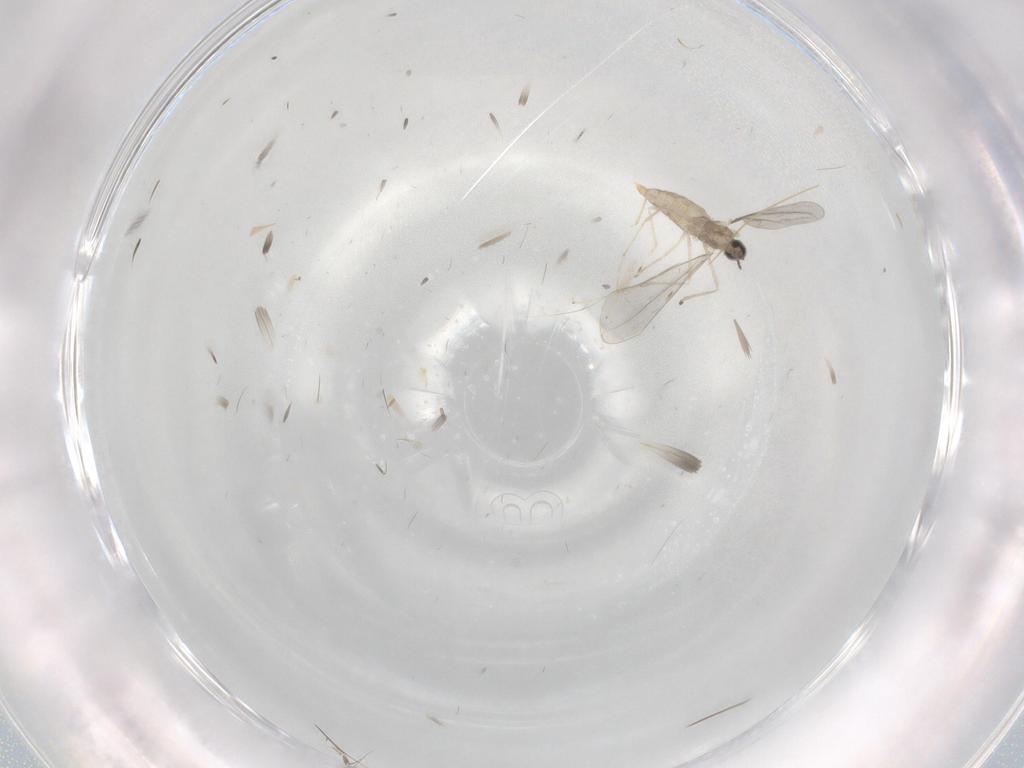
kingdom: Animalia
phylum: Arthropoda
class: Insecta
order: Diptera
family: Cecidomyiidae
